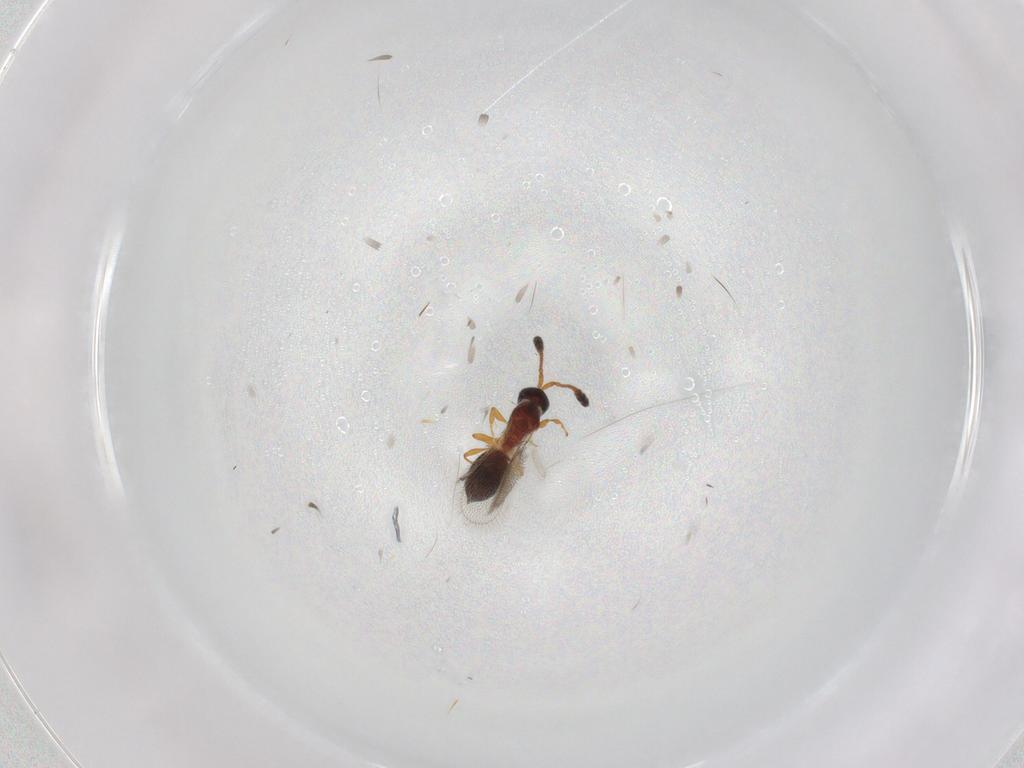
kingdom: Animalia
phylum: Arthropoda
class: Insecta
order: Hymenoptera
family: Diapriidae
